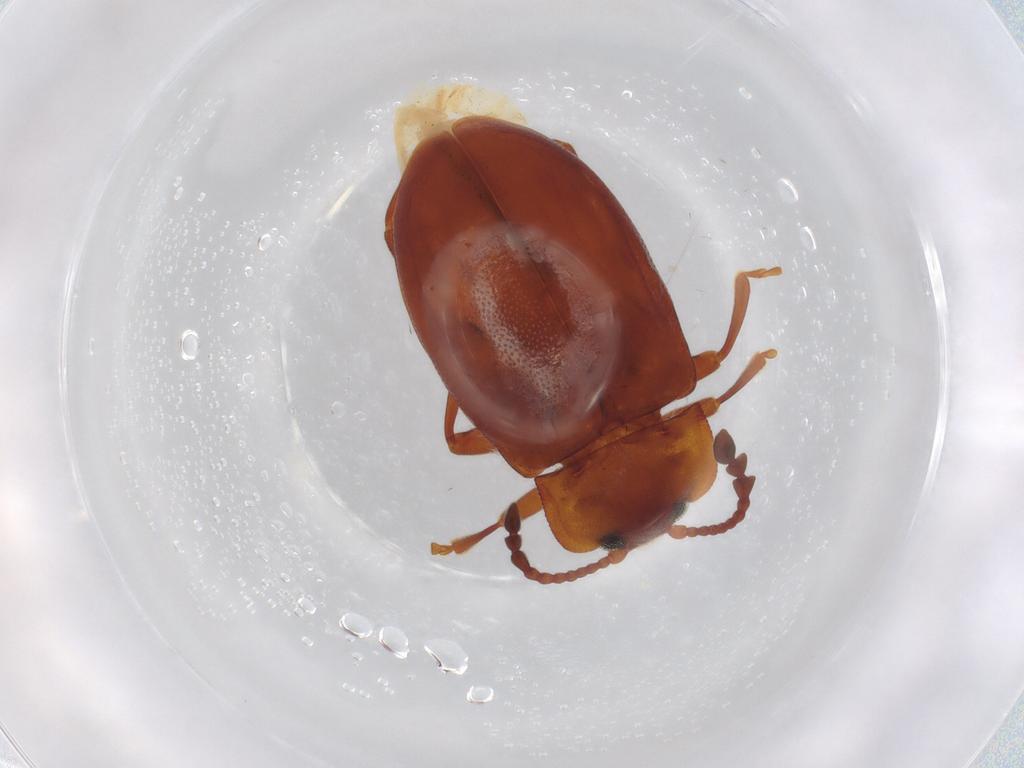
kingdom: Animalia
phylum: Arthropoda
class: Insecta
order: Coleoptera
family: Endomychidae
